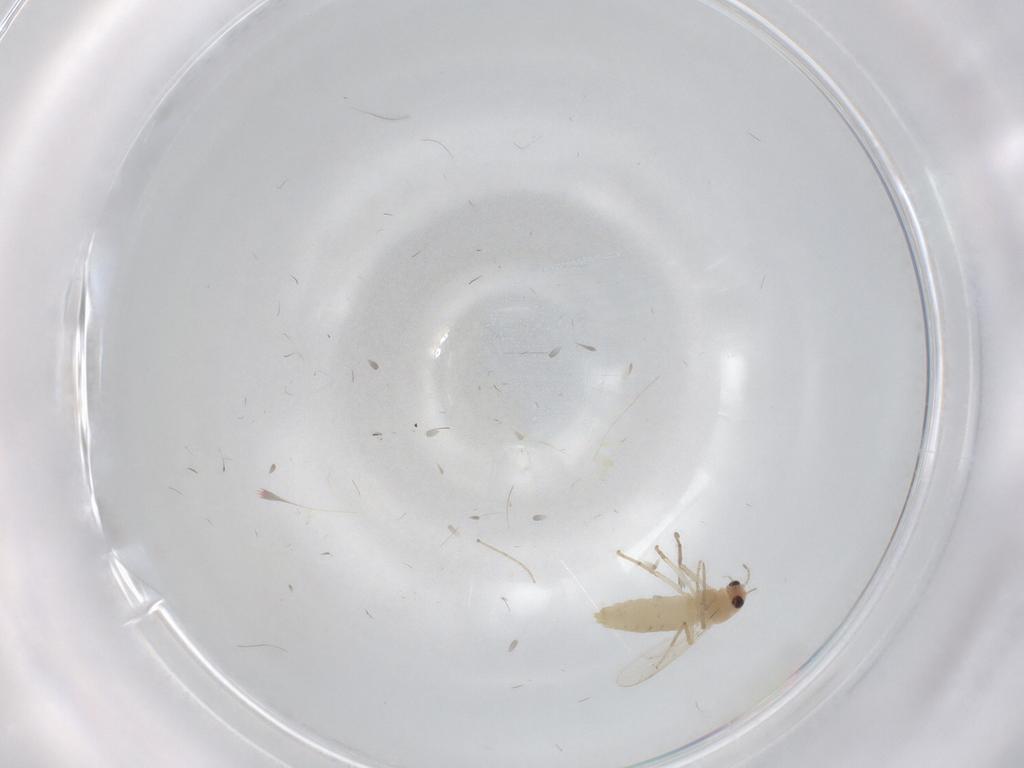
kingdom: Animalia
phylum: Arthropoda
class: Insecta
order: Diptera
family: Chironomidae
